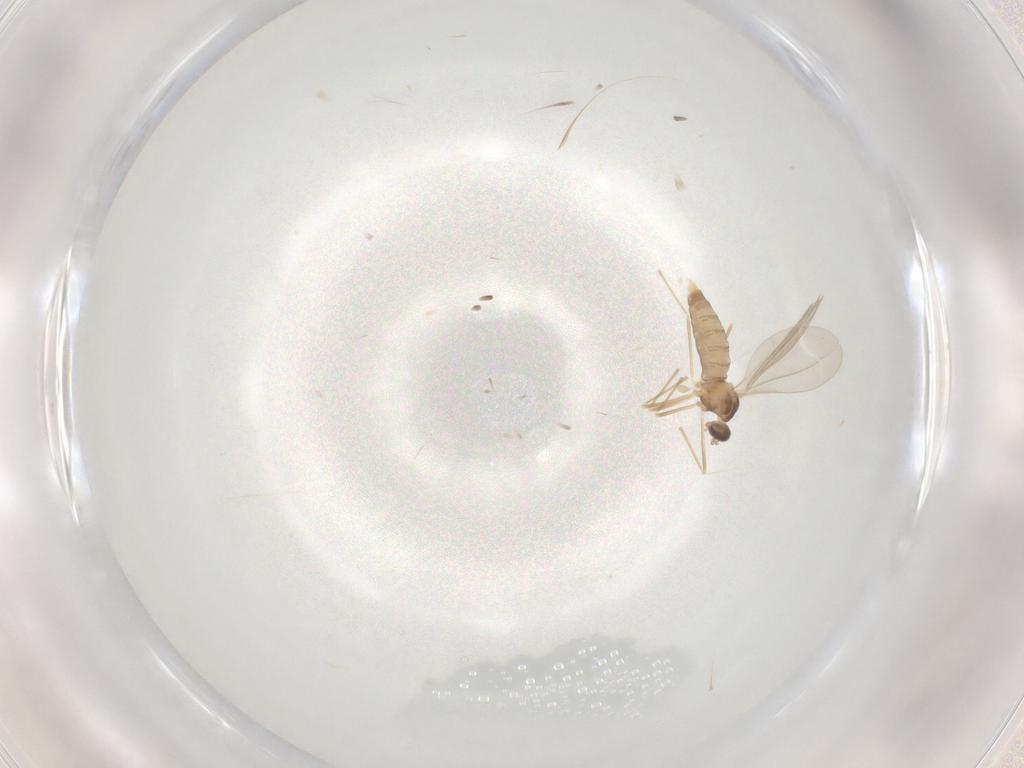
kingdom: Animalia
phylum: Arthropoda
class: Insecta
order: Diptera
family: Cecidomyiidae
